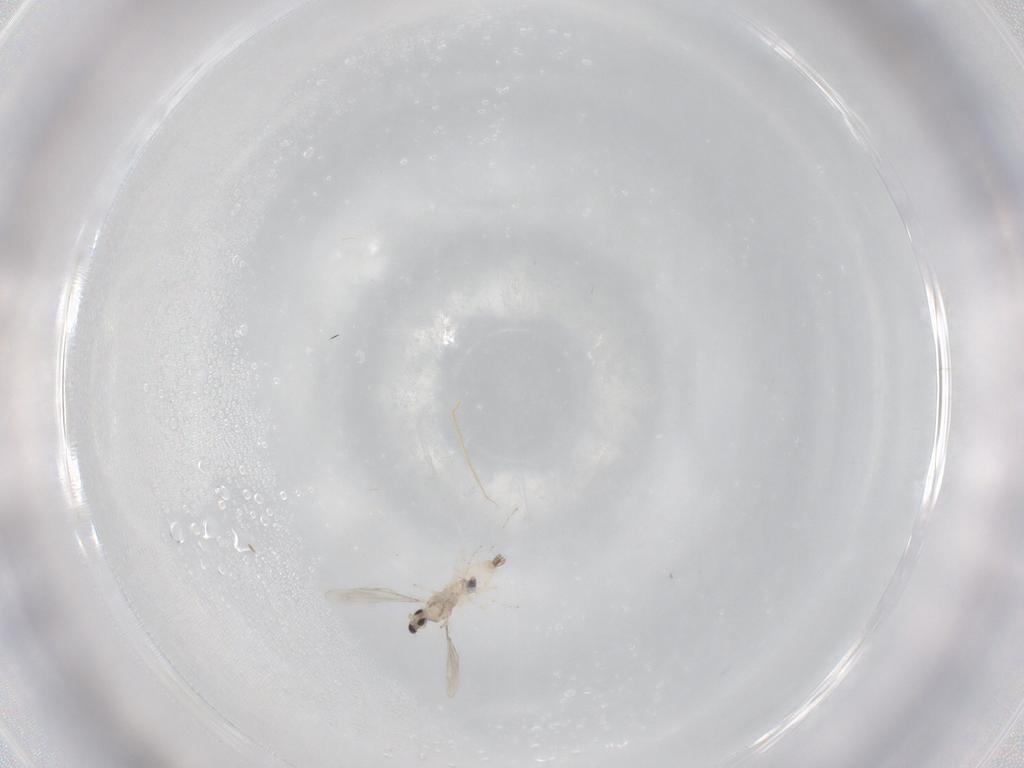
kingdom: Animalia
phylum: Arthropoda
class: Insecta
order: Diptera
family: Cecidomyiidae
